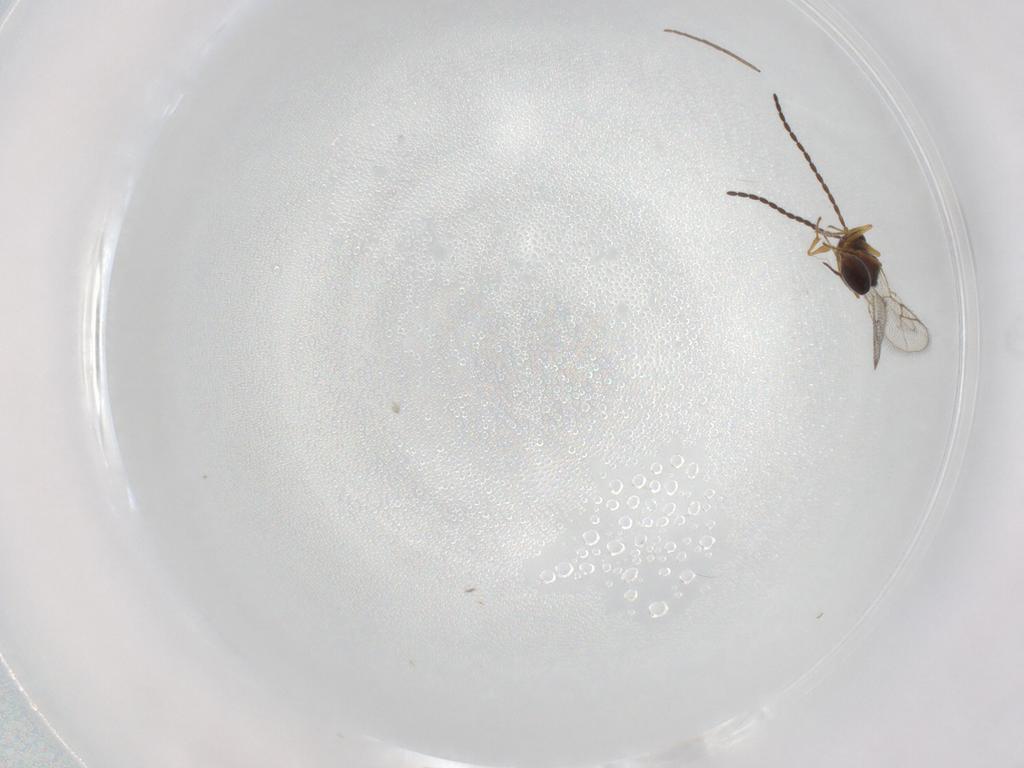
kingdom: Animalia
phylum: Arthropoda
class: Insecta
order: Hymenoptera
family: Figitidae
